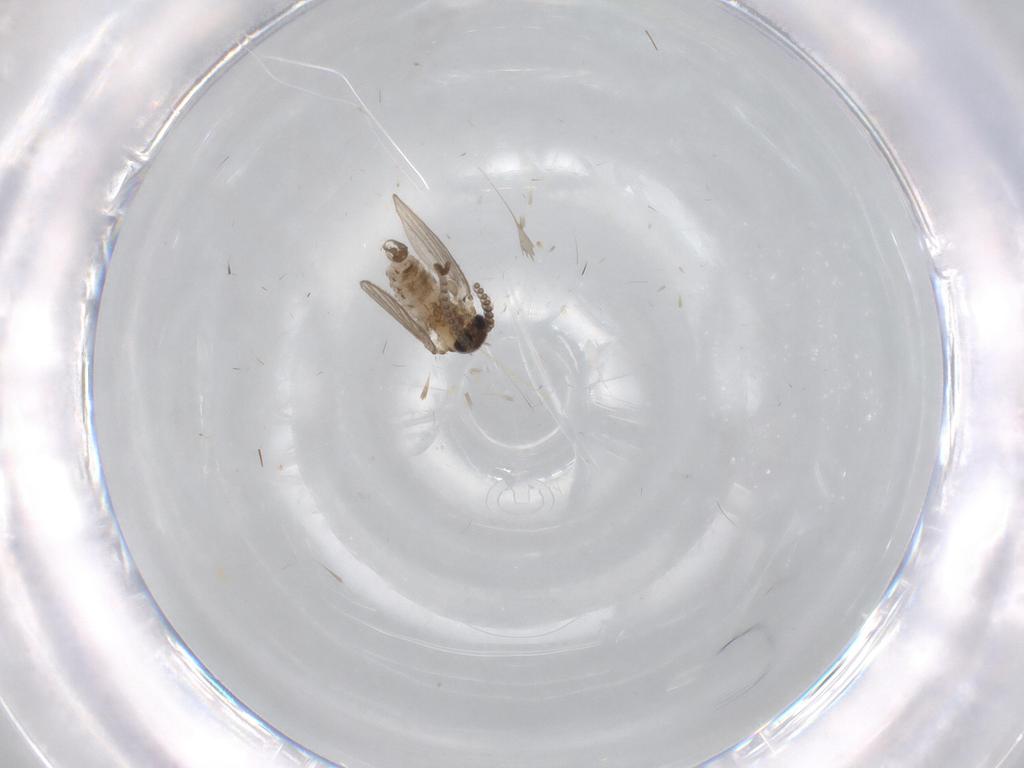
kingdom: Animalia
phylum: Arthropoda
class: Insecta
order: Diptera
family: Psychodidae
